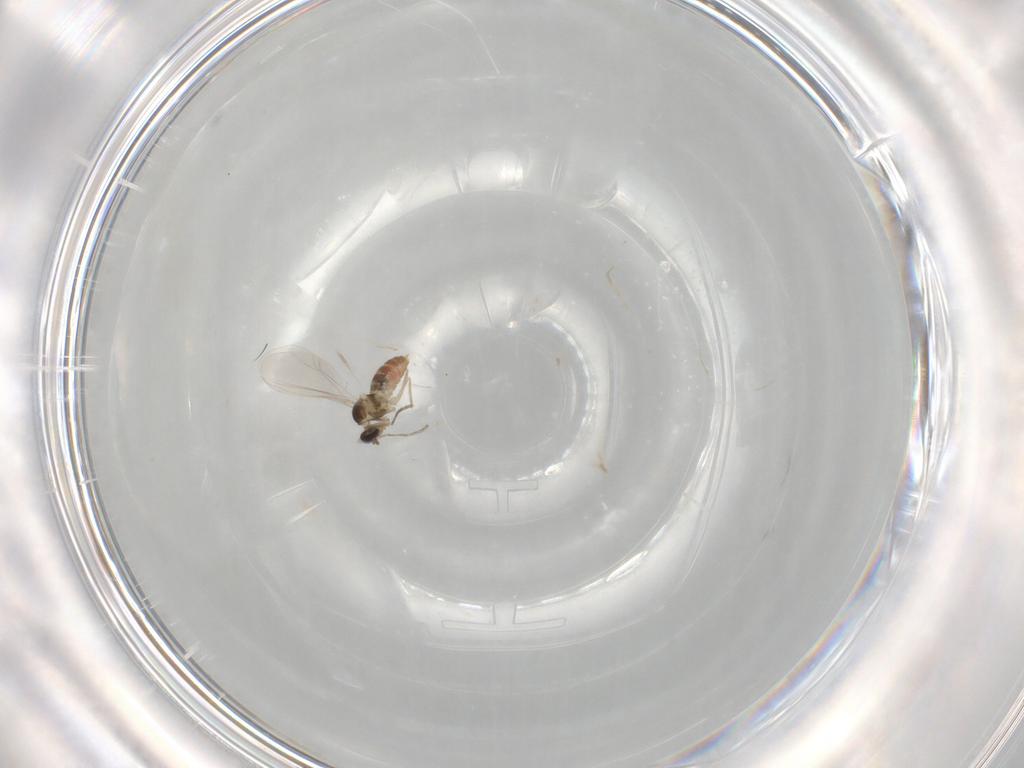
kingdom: Animalia
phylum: Arthropoda
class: Insecta
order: Diptera
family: Cecidomyiidae
